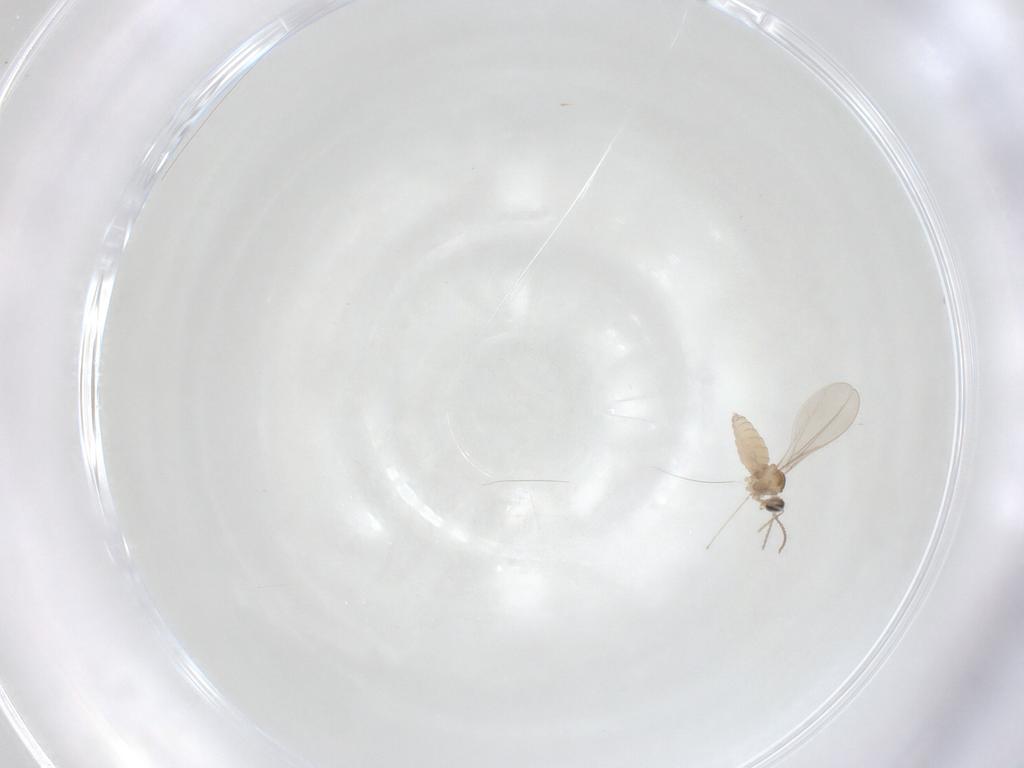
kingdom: Animalia
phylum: Arthropoda
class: Insecta
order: Diptera
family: Cecidomyiidae
